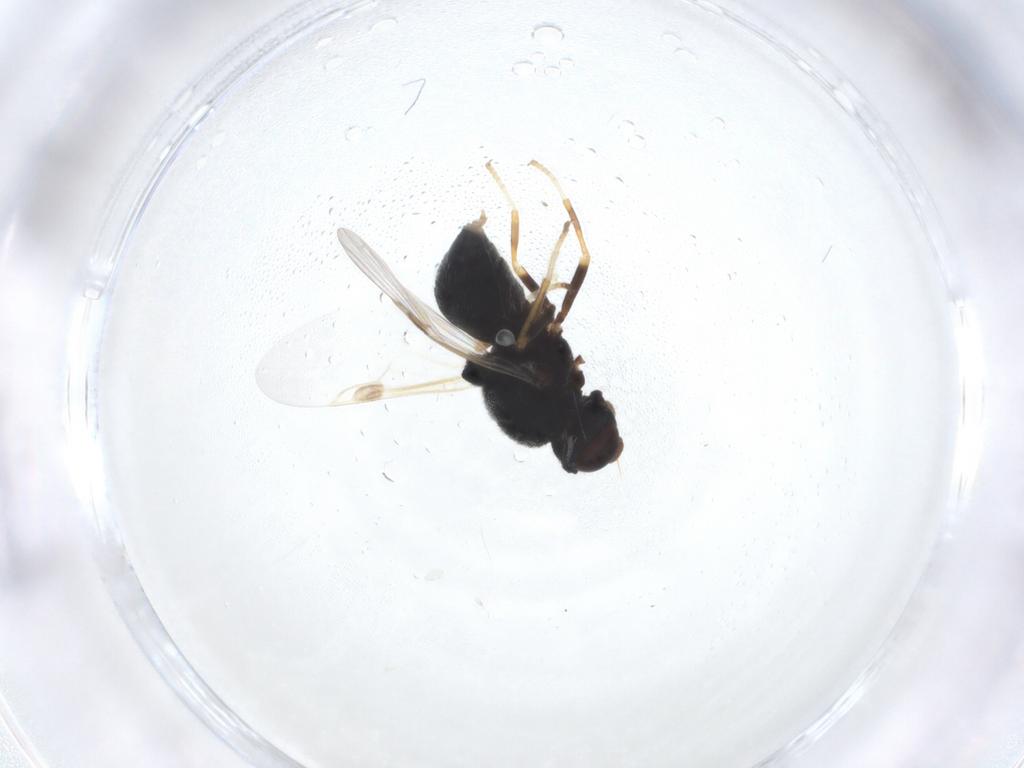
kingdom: Animalia
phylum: Arthropoda
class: Insecta
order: Diptera
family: Stratiomyidae
